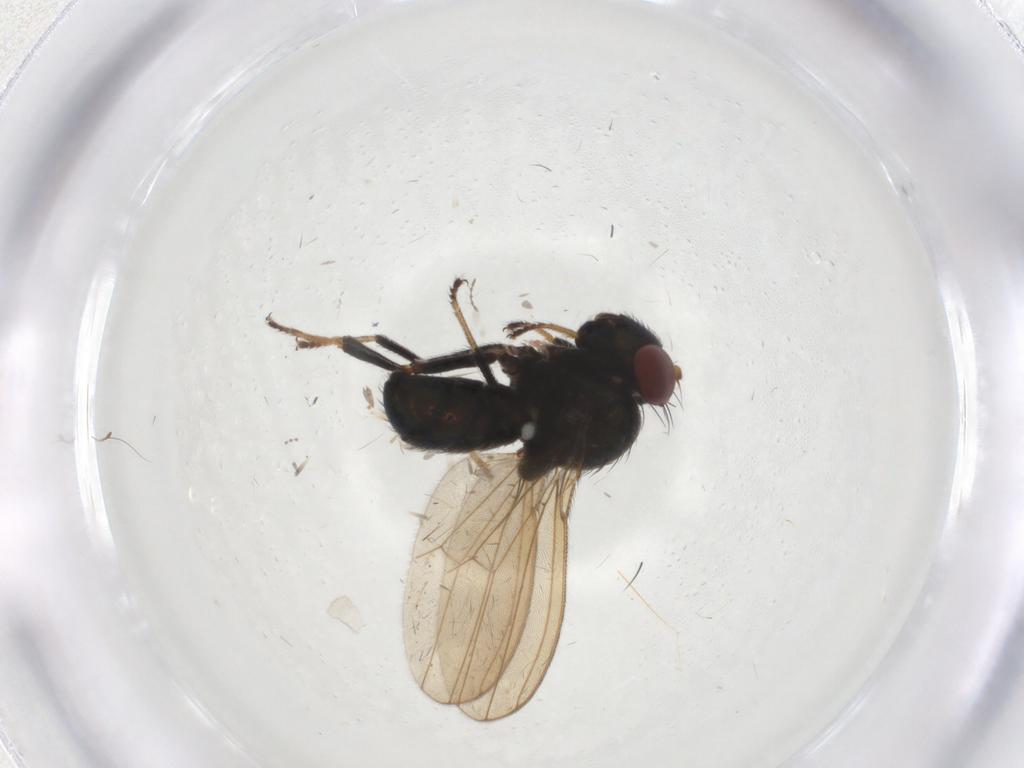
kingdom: Animalia
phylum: Arthropoda
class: Insecta
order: Diptera
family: Ephydridae
